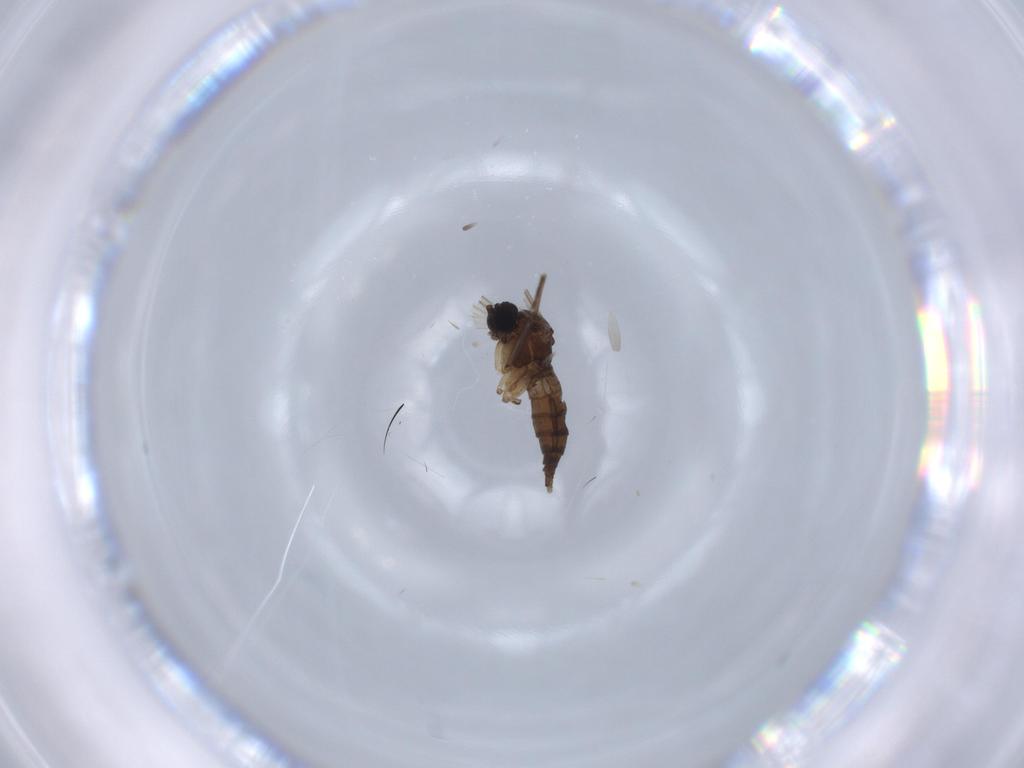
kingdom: Animalia
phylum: Arthropoda
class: Insecta
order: Diptera
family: Sciaridae
